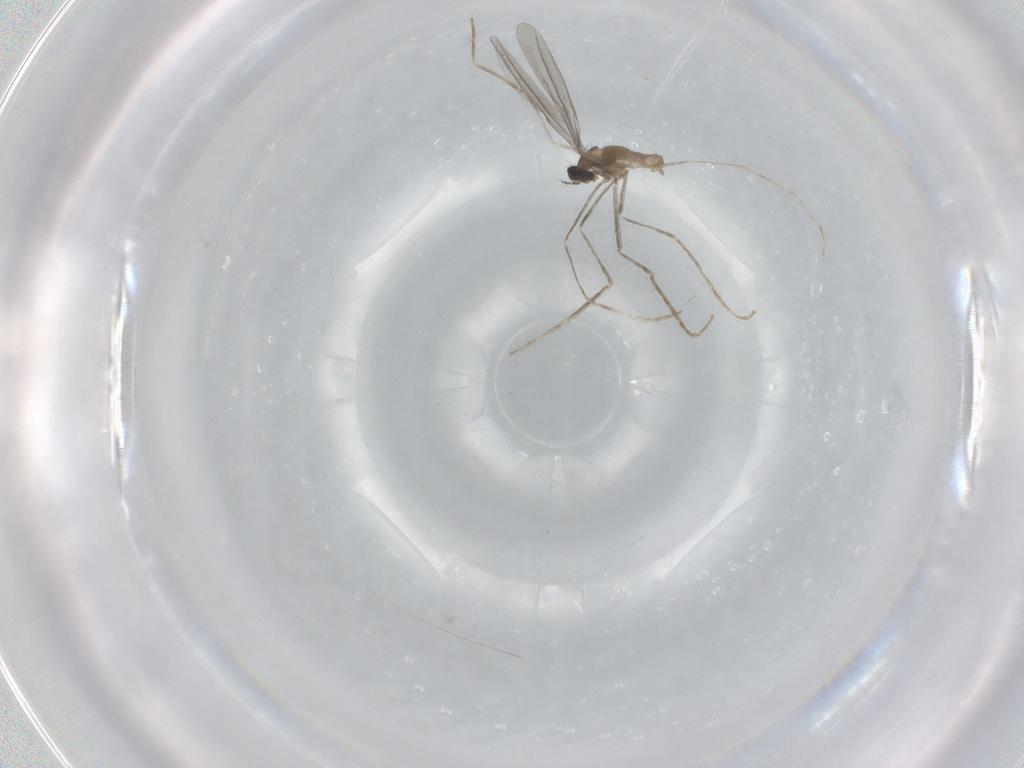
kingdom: Animalia
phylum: Arthropoda
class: Insecta
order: Diptera
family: Cecidomyiidae
